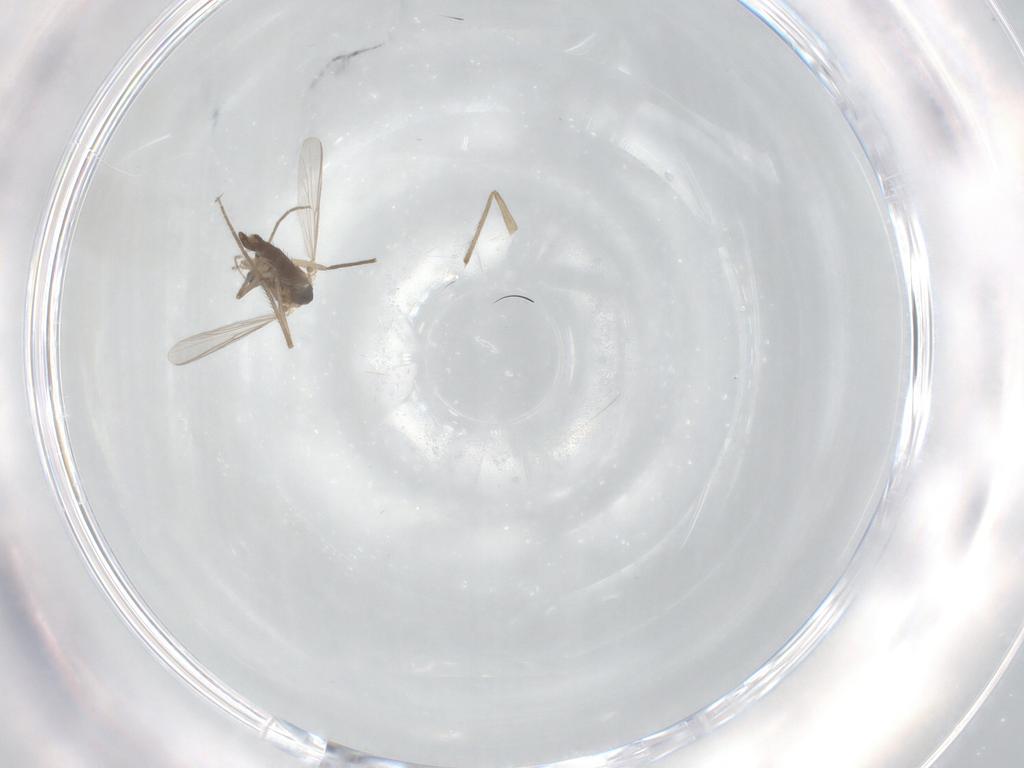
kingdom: Animalia
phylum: Arthropoda
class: Insecta
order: Diptera
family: Chironomidae
